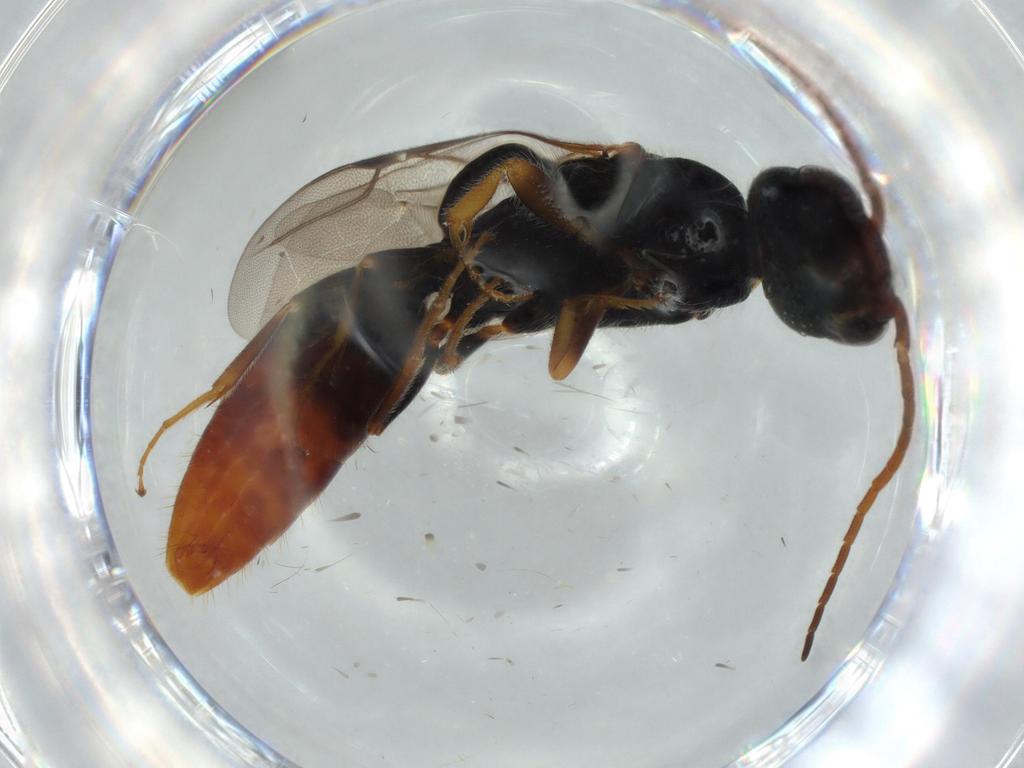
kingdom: Animalia
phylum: Arthropoda
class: Insecta
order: Hymenoptera
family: Bethylidae
